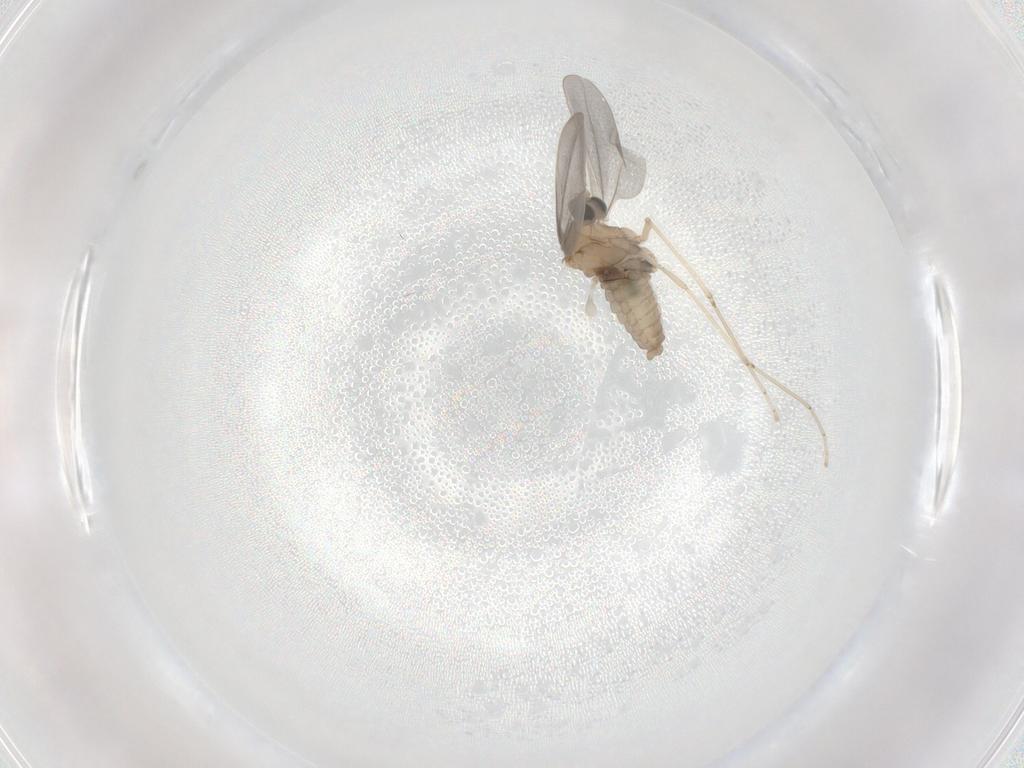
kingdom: Animalia
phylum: Arthropoda
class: Insecta
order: Diptera
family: Cecidomyiidae
